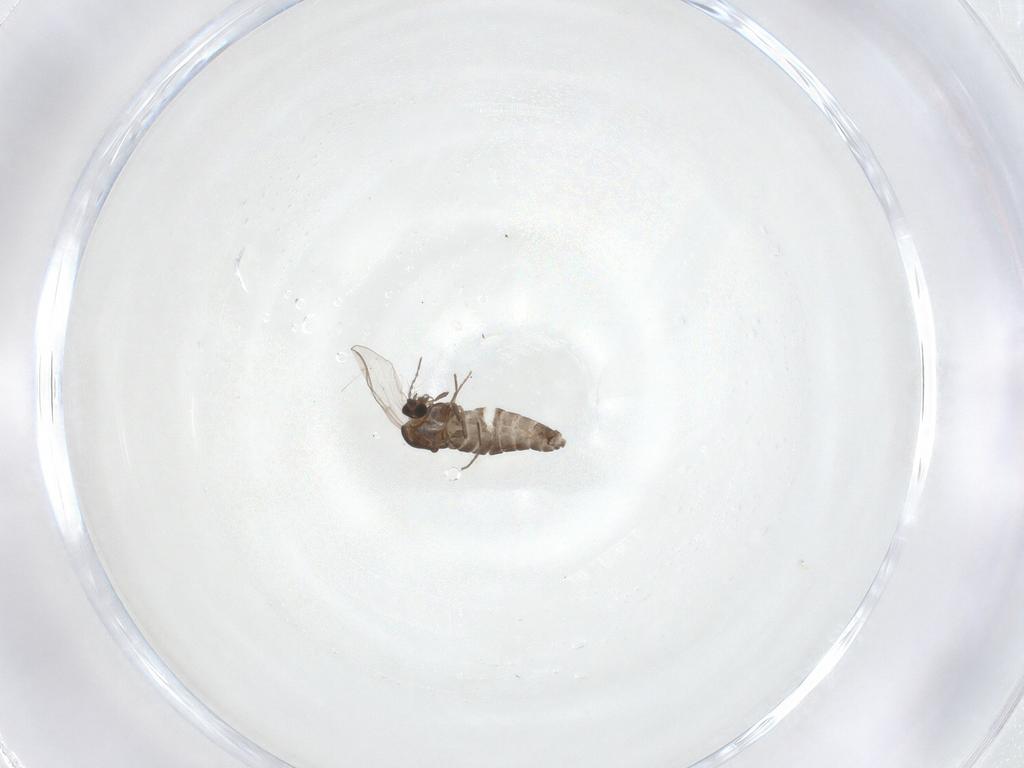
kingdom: Animalia
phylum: Arthropoda
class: Insecta
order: Diptera
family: Chironomidae
